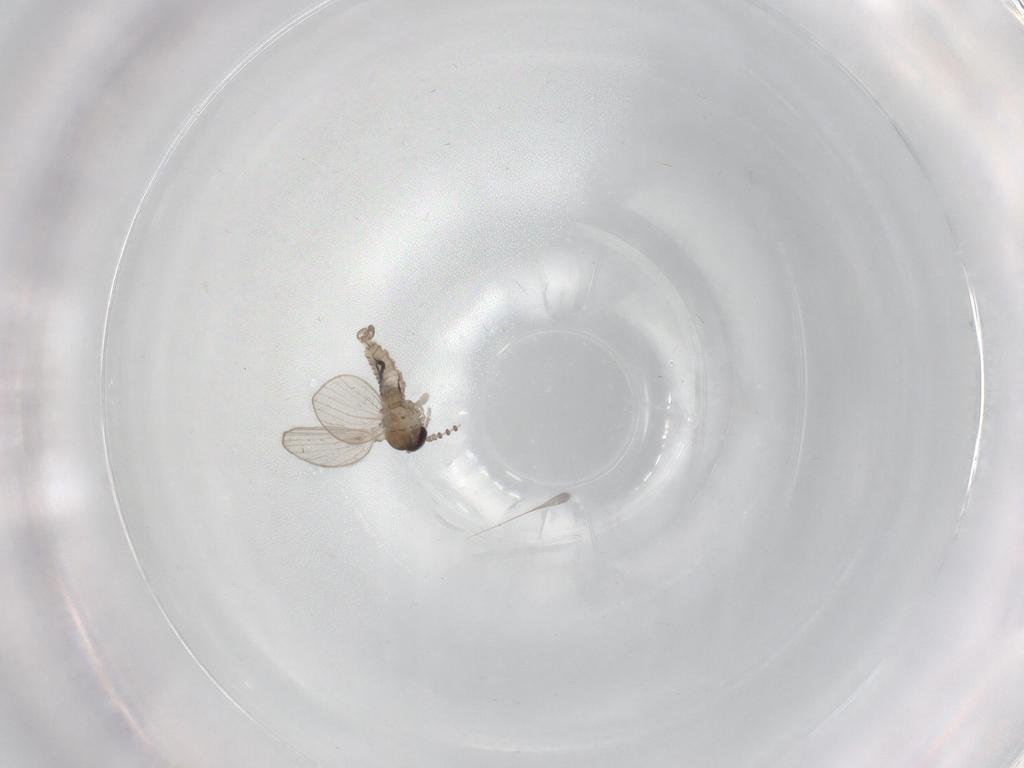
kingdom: Animalia
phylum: Arthropoda
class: Insecta
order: Diptera
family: Psychodidae
